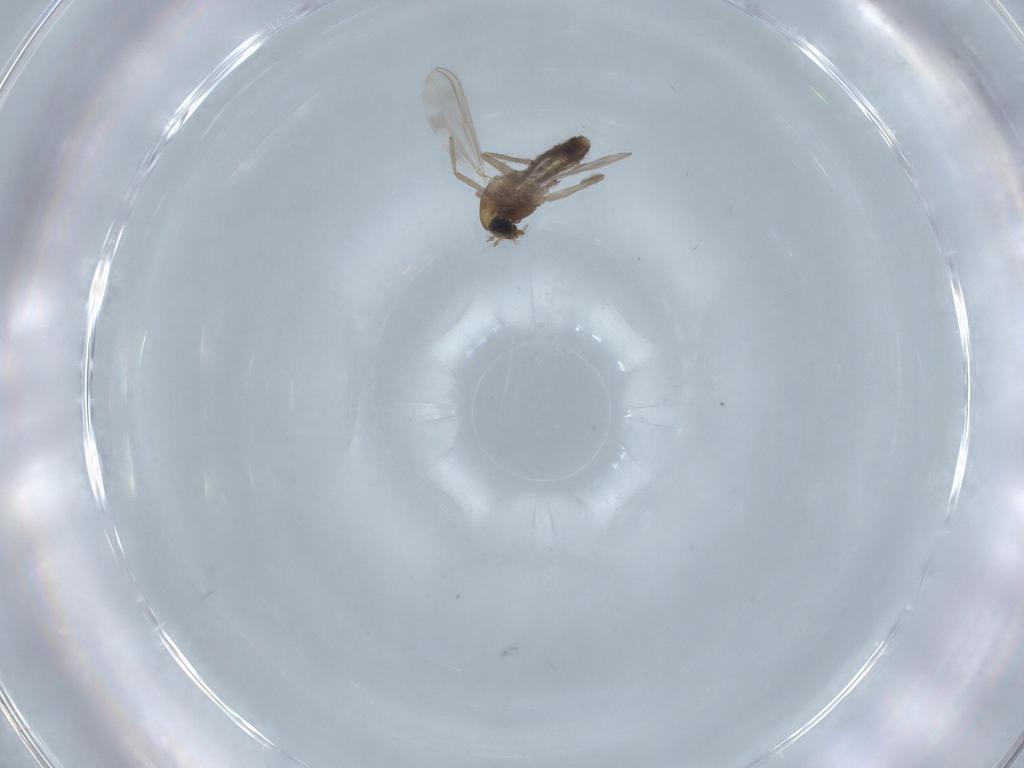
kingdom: Animalia
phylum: Arthropoda
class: Insecta
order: Diptera
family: Chironomidae
